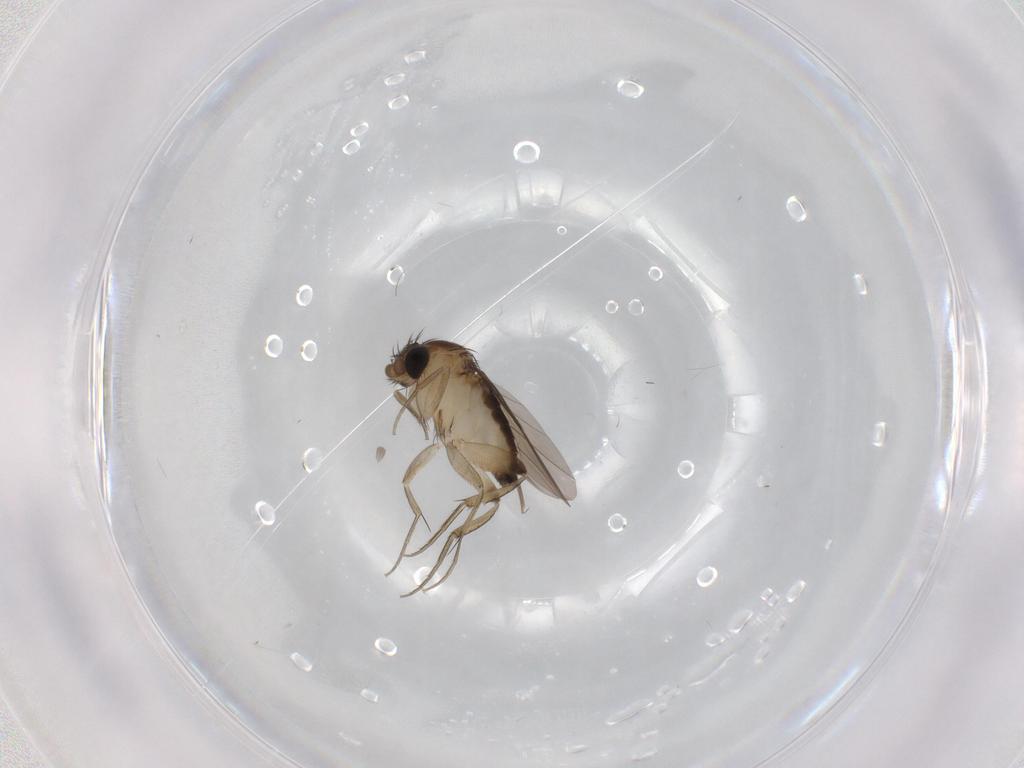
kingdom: Animalia
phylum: Arthropoda
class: Insecta
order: Diptera
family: Phoridae
